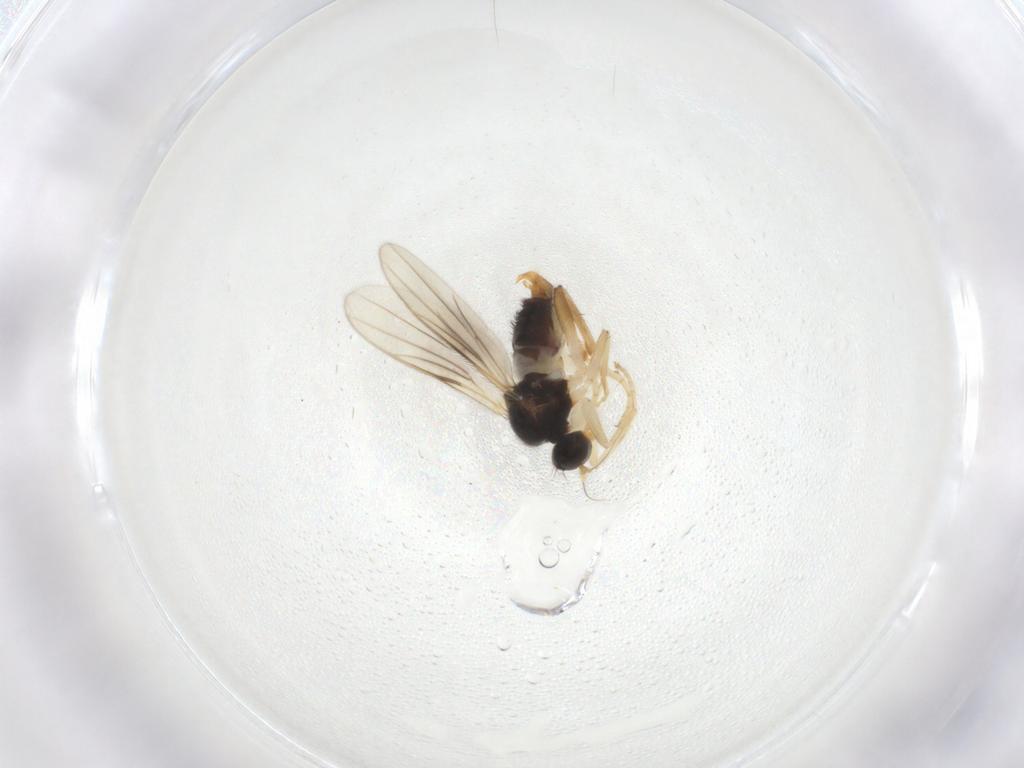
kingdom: Animalia
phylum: Arthropoda
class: Insecta
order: Diptera
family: Hybotidae
